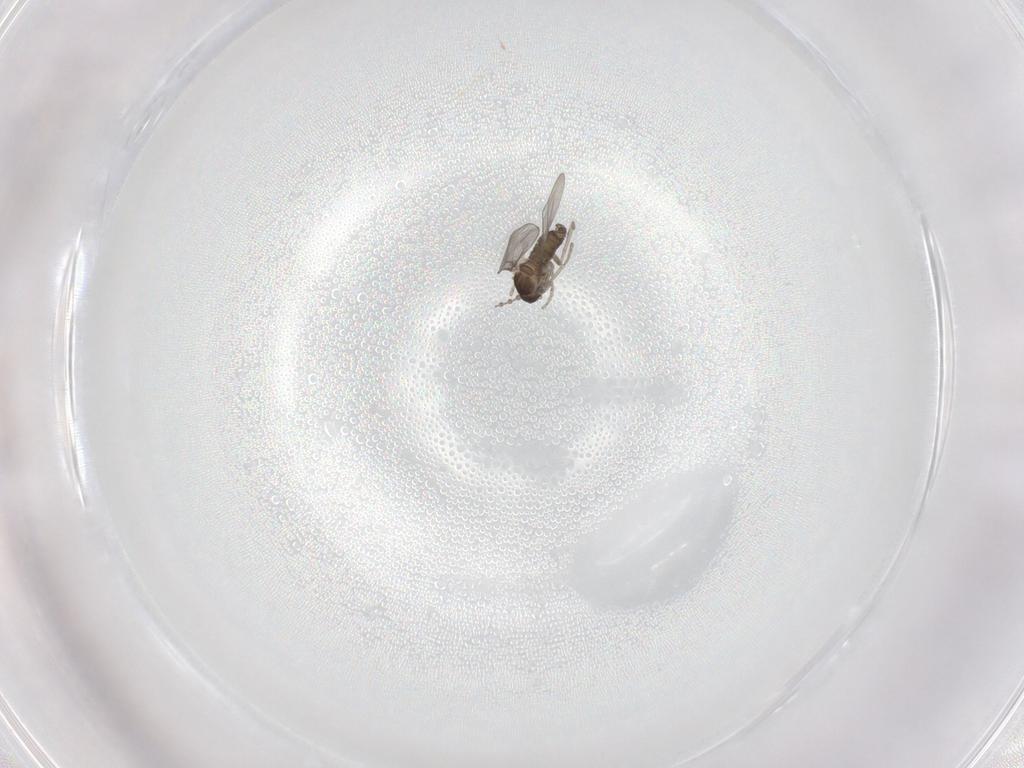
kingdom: Animalia
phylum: Arthropoda
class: Insecta
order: Diptera
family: Cecidomyiidae
